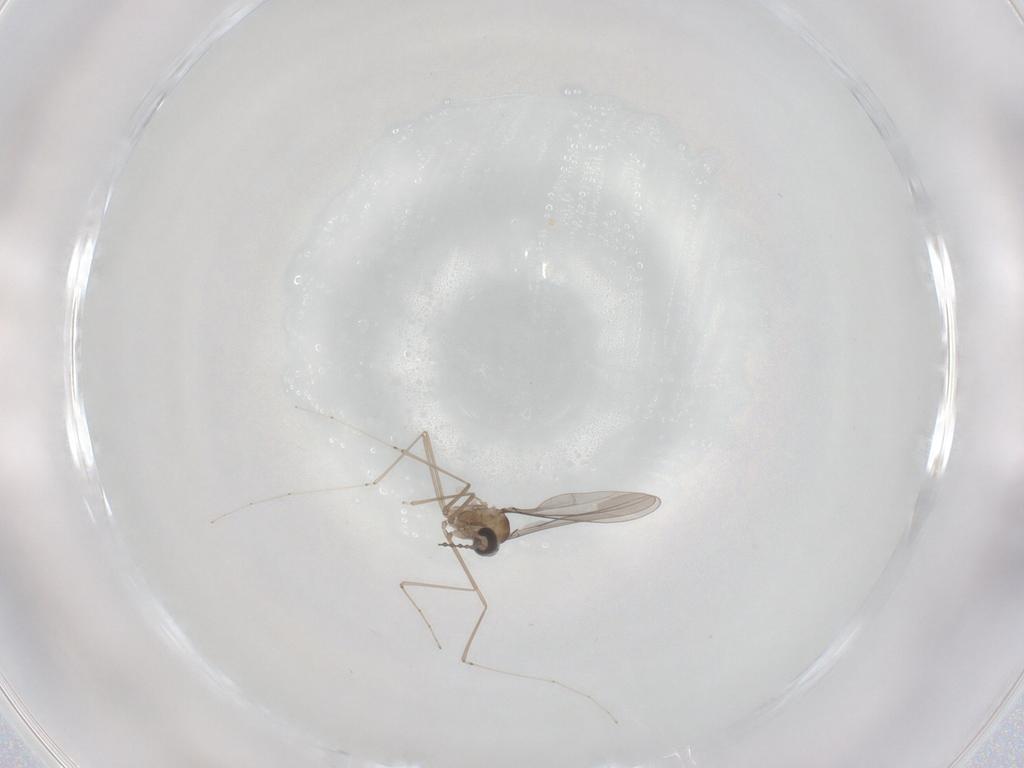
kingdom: Animalia
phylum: Arthropoda
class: Insecta
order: Diptera
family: Cecidomyiidae
